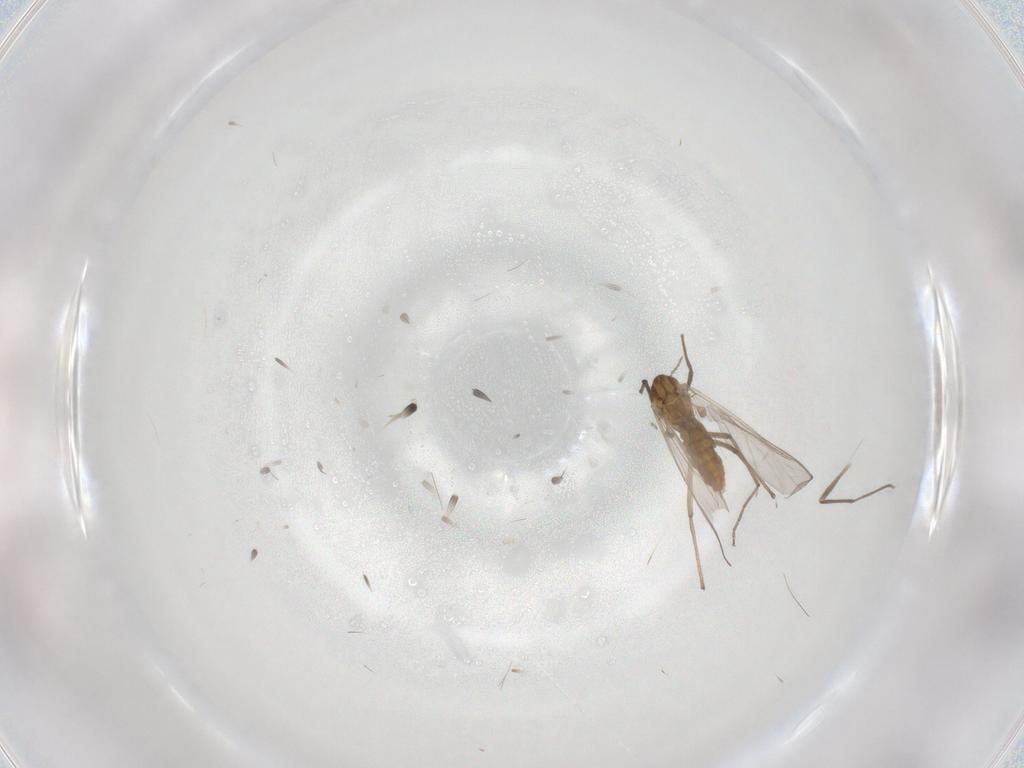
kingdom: Animalia
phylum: Arthropoda
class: Insecta
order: Diptera
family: Chironomidae
